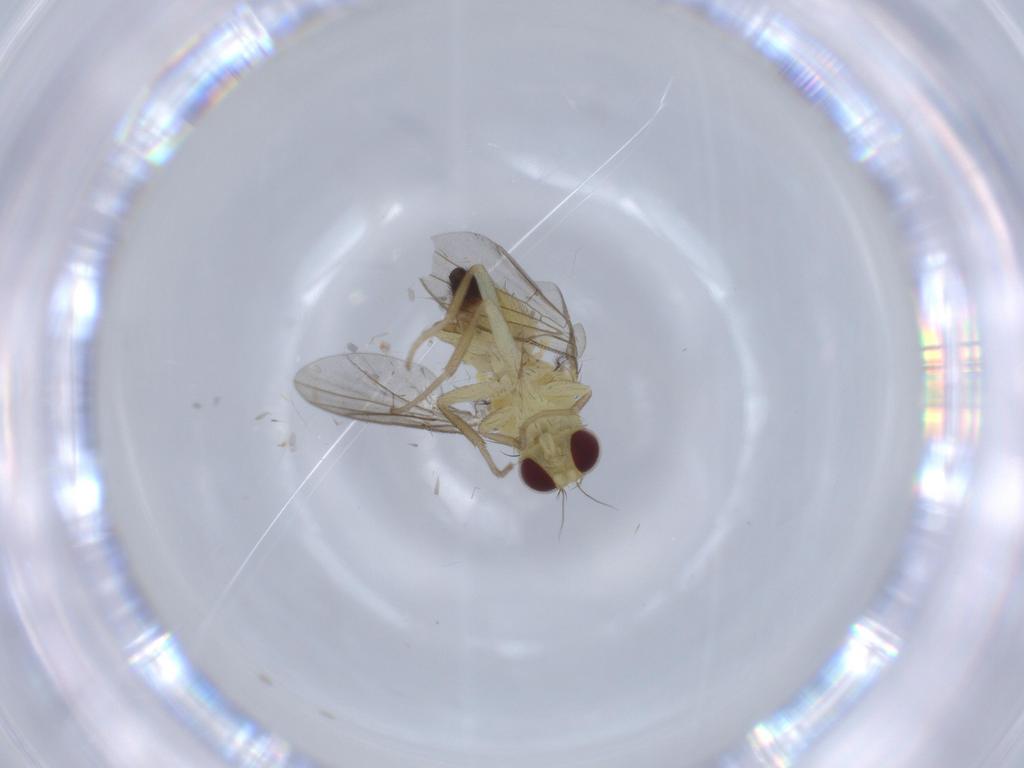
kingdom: Animalia
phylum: Arthropoda
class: Insecta
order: Diptera
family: Agromyzidae
